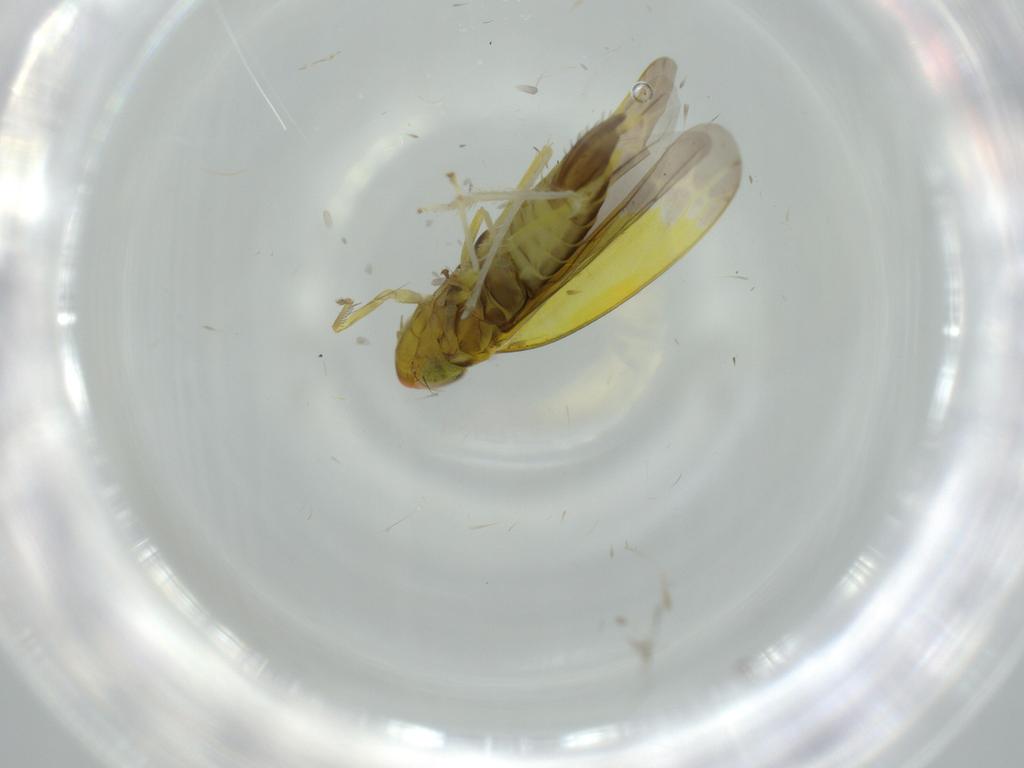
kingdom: Animalia
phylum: Arthropoda
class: Insecta
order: Hemiptera
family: Cicadellidae
